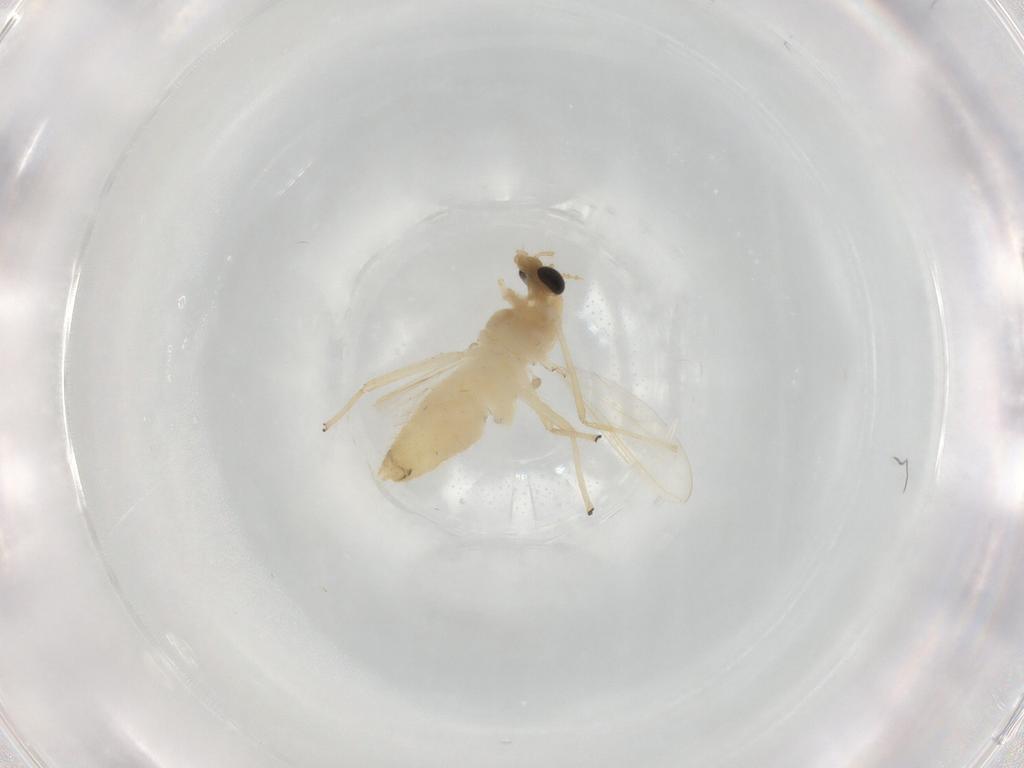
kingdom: Animalia
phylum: Arthropoda
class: Insecta
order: Diptera
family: Chironomidae
